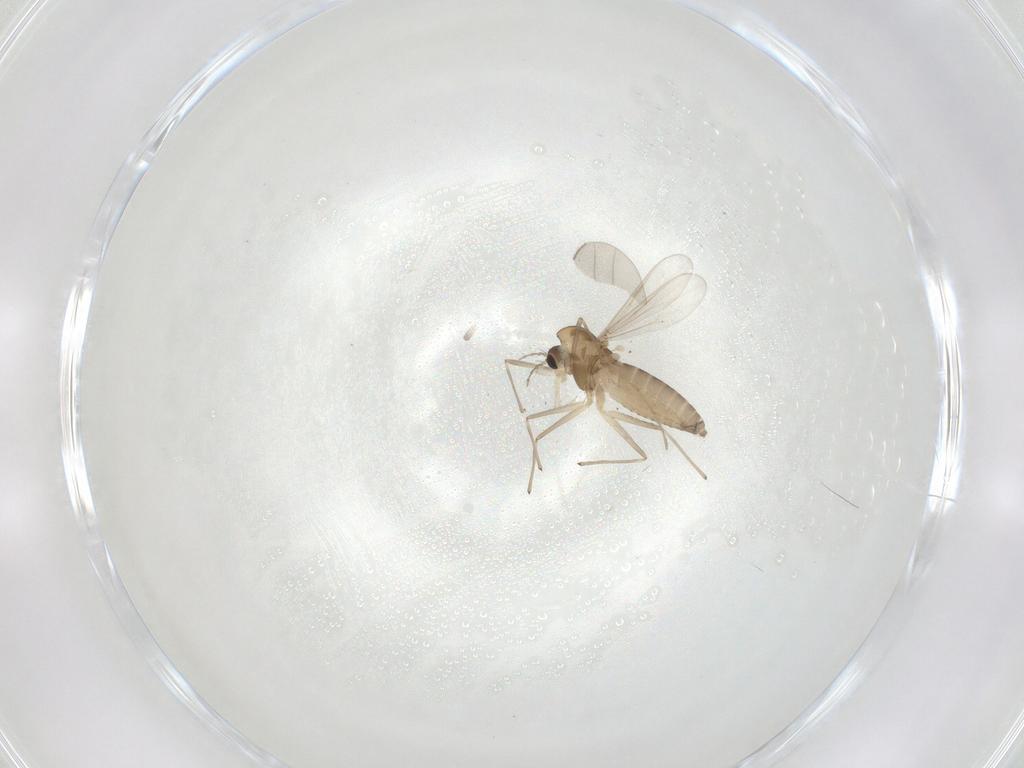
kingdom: Animalia
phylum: Arthropoda
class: Insecta
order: Diptera
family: Chironomidae
